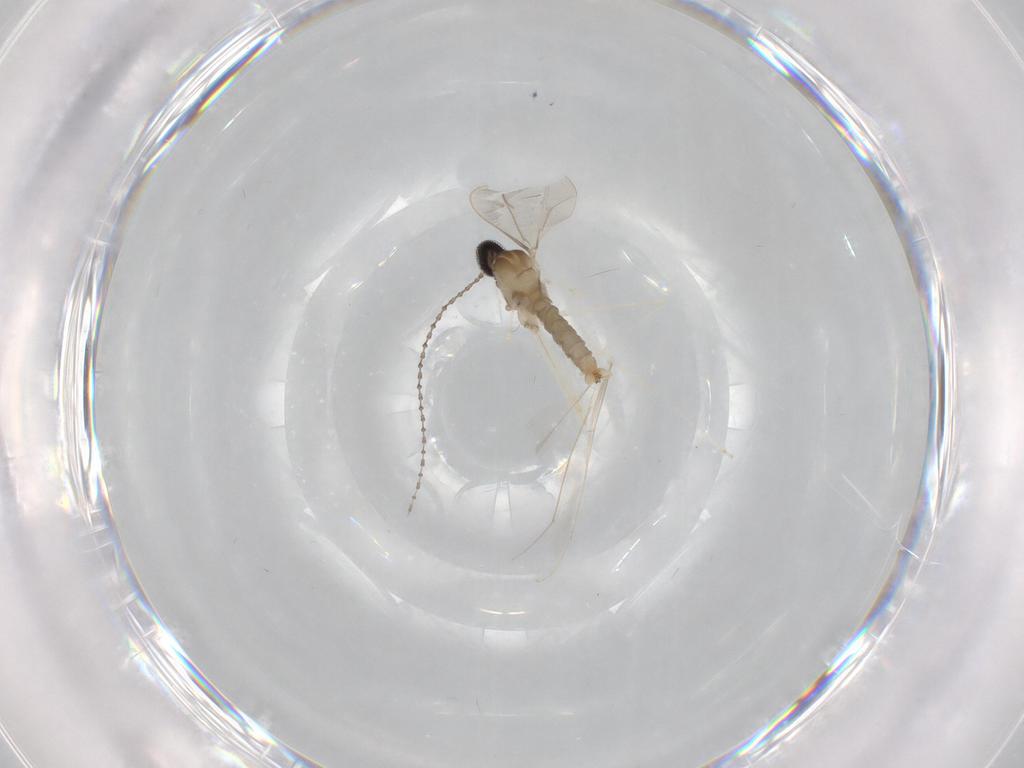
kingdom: Animalia
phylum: Arthropoda
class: Insecta
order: Diptera
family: Cecidomyiidae
